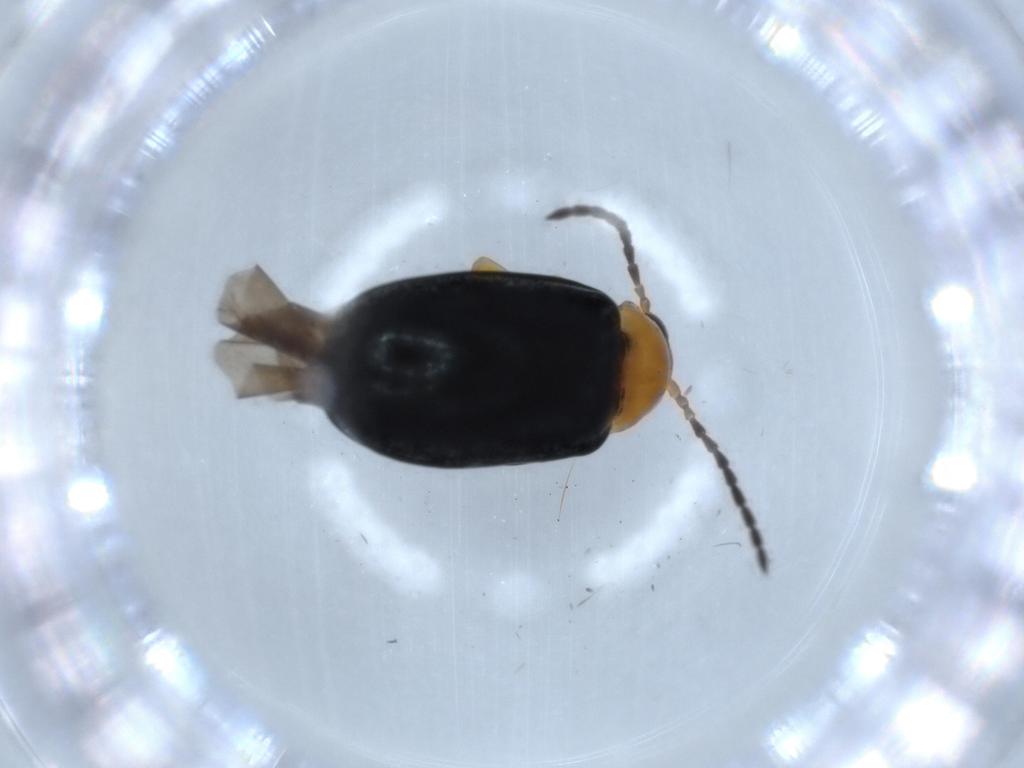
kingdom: Animalia
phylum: Arthropoda
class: Insecta
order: Coleoptera
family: Chrysomelidae
